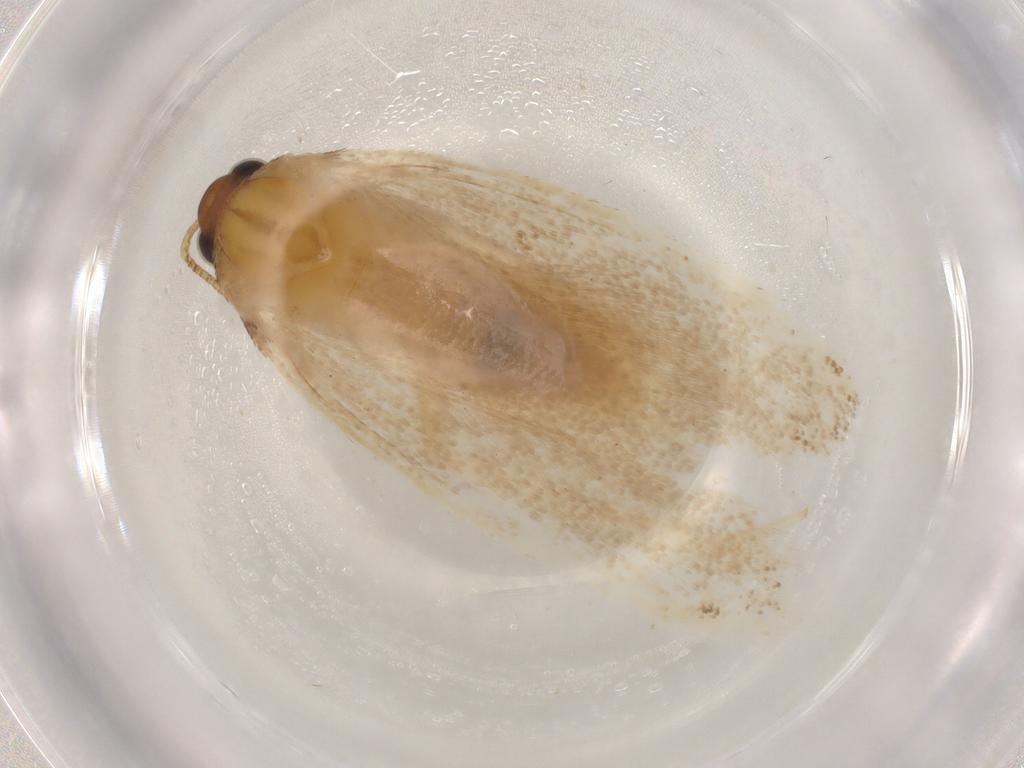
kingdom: Animalia
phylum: Arthropoda
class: Insecta
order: Lepidoptera
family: Autostichidae
